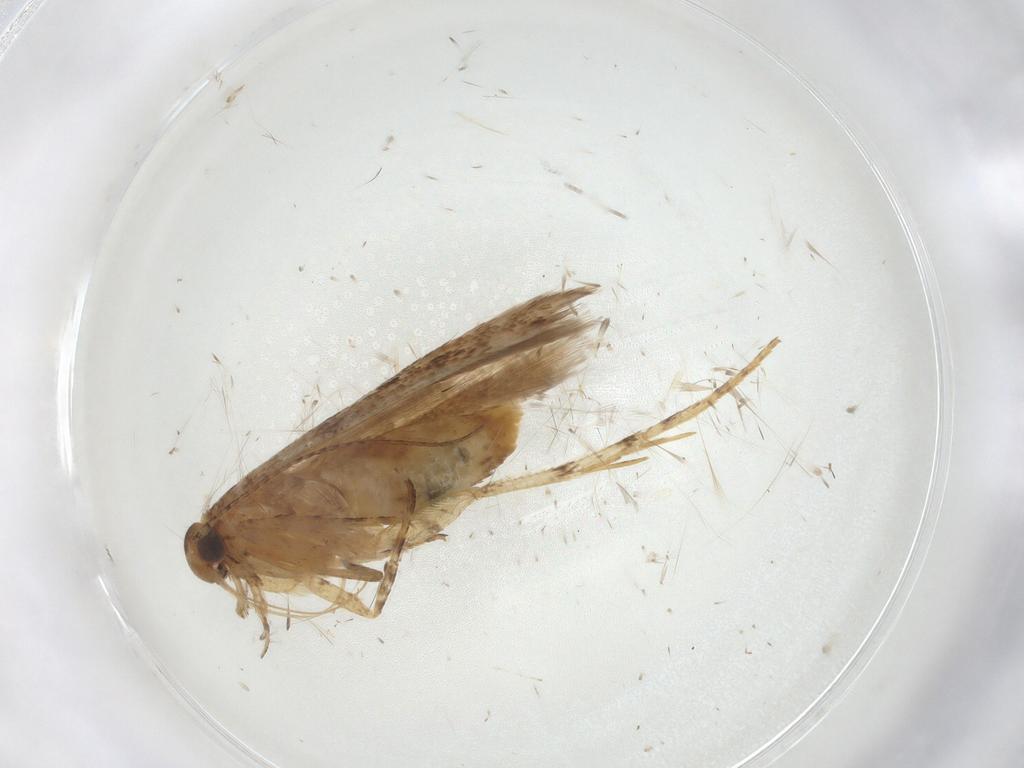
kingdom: Animalia
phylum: Arthropoda
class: Insecta
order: Lepidoptera
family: Gelechiidae
